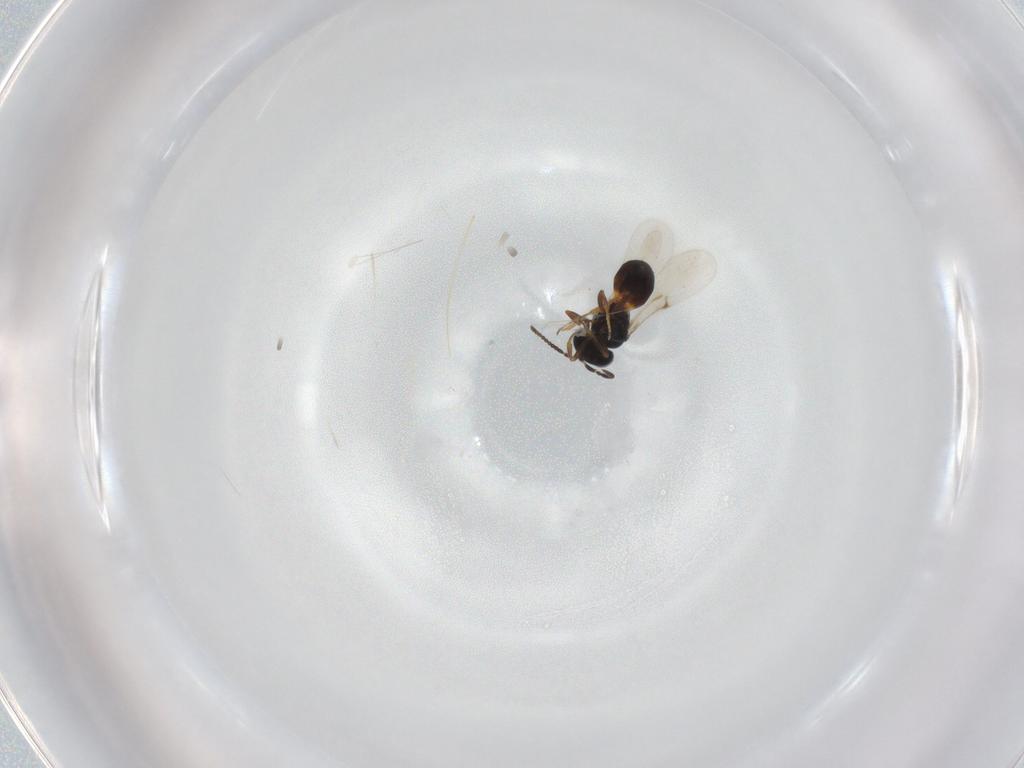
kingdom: Animalia
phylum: Arthropoda
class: Insecta
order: Hymenoptera
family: Scelionidae
